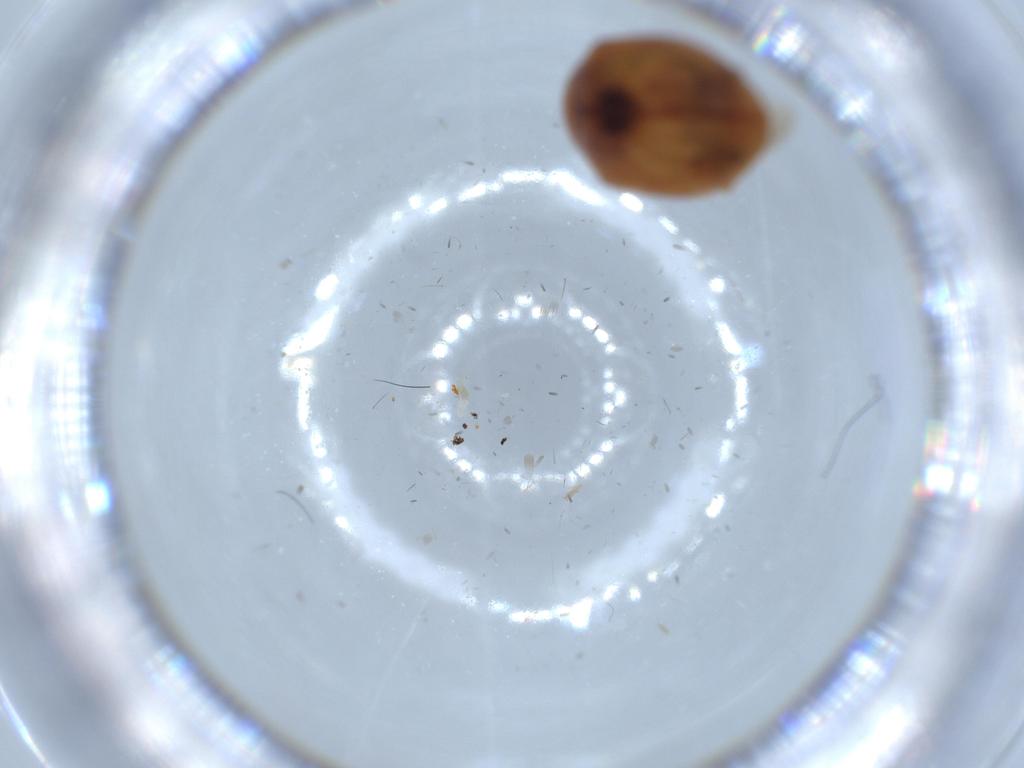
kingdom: Animalia
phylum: Arthropoda
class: Insecta
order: Coleoptera
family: Coccinellidae
